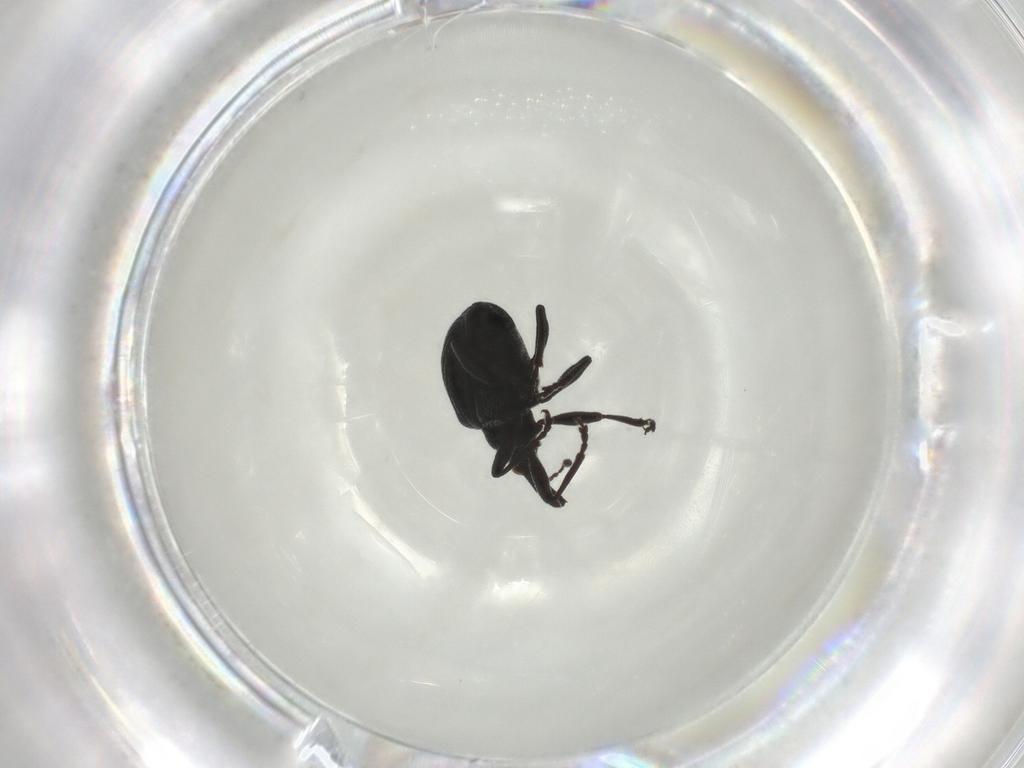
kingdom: Animalia
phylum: Arthropoda
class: Insecta
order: Coleoptera
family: Brentidae
